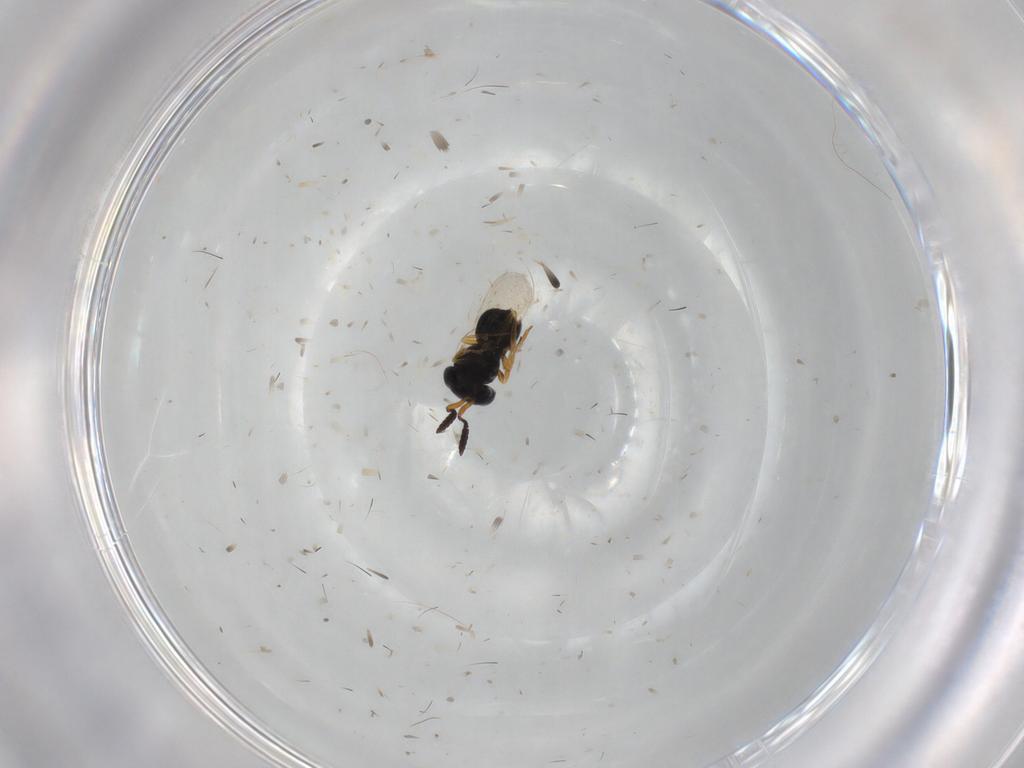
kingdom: Animalia
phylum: Arthropoda
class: Insecta
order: Hymenoptera
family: Scelionidae
